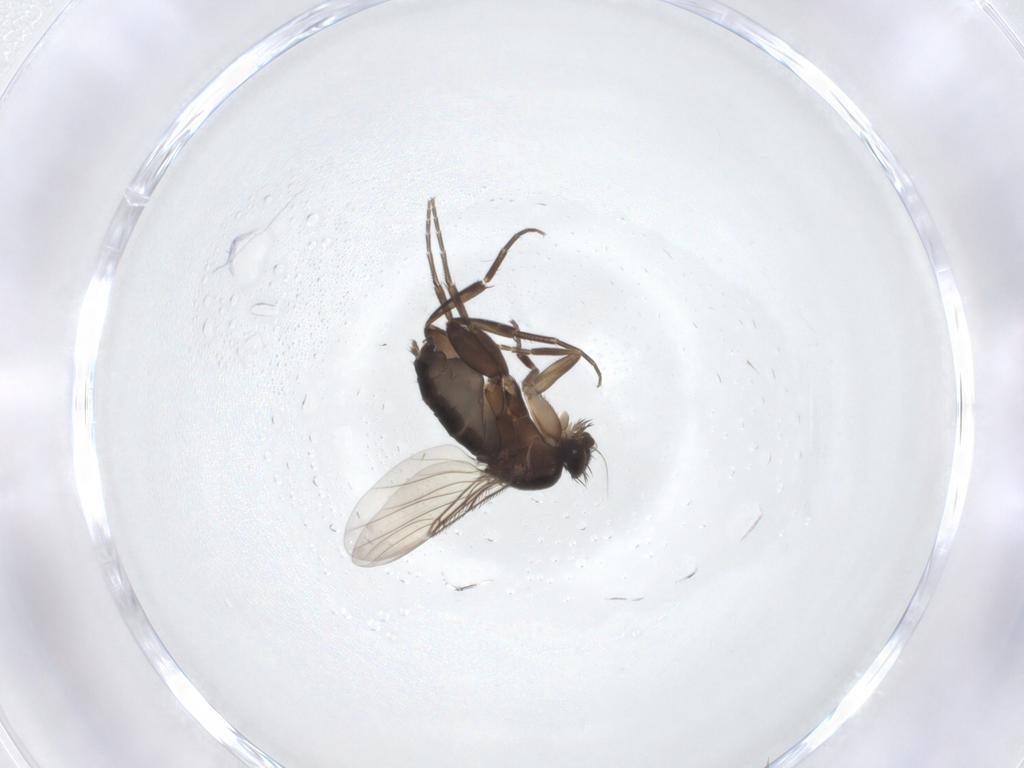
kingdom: Animalia
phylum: Arthropoda
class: Insecta
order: Diptera
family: Phoridae
